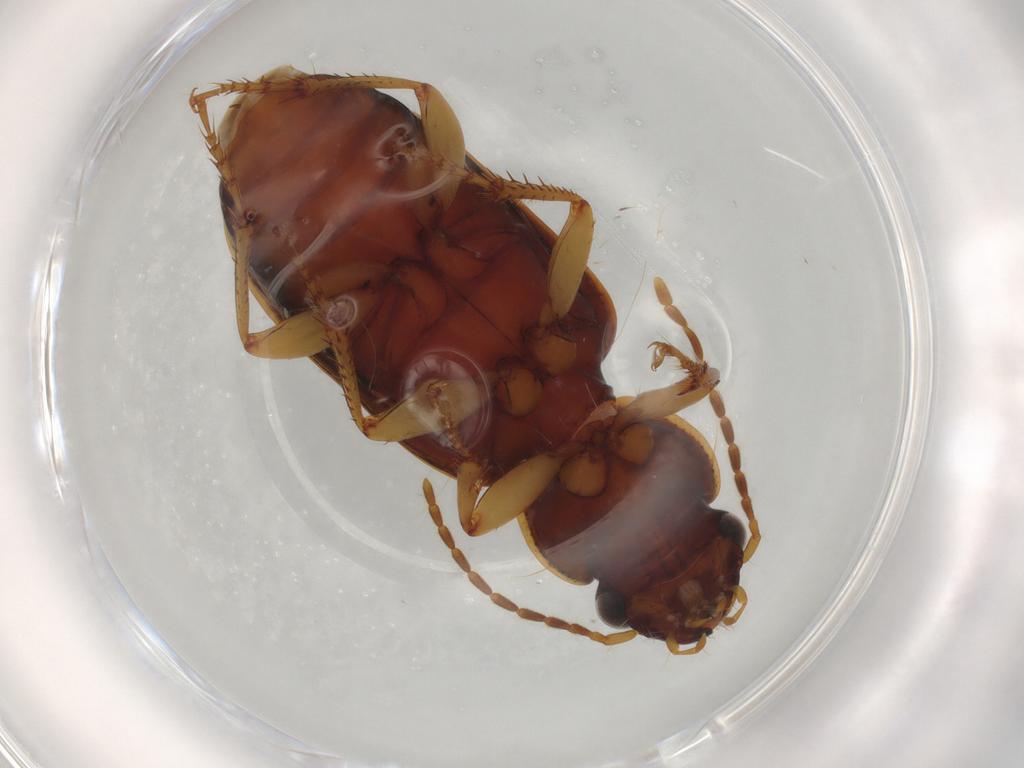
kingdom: Animalia
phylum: Arthropoda
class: Insecta
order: Coleoptera
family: Carabidae
